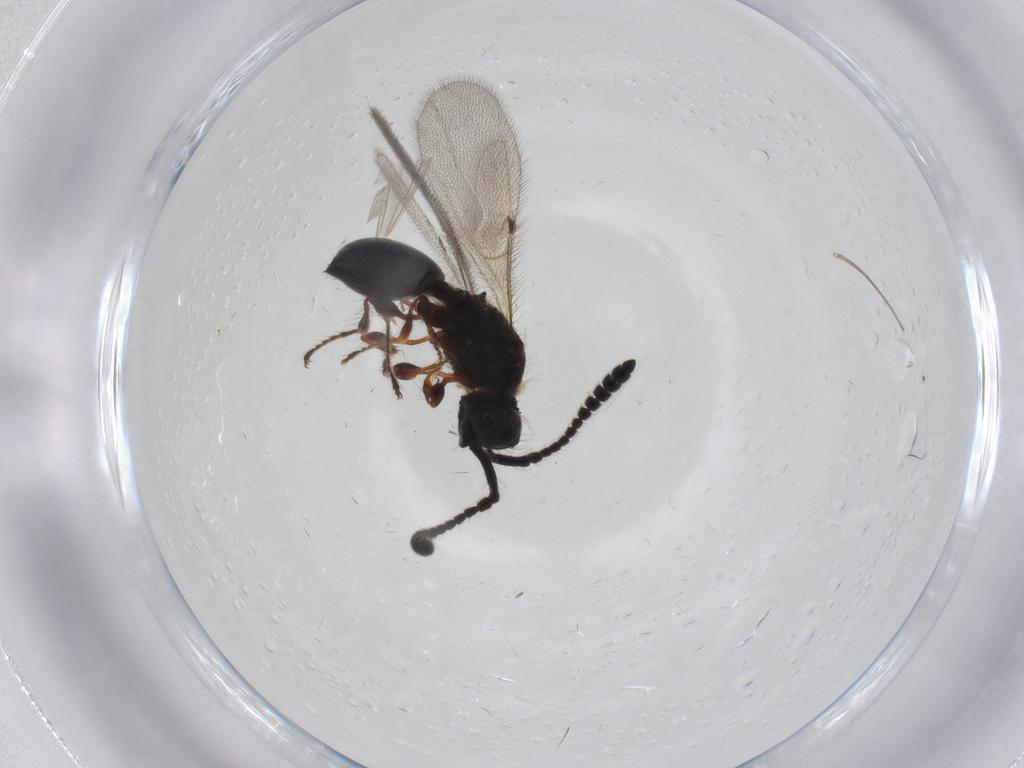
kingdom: Animalia
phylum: Arthropoda
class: Insecta
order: Hymenoptera
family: Diapriidae
